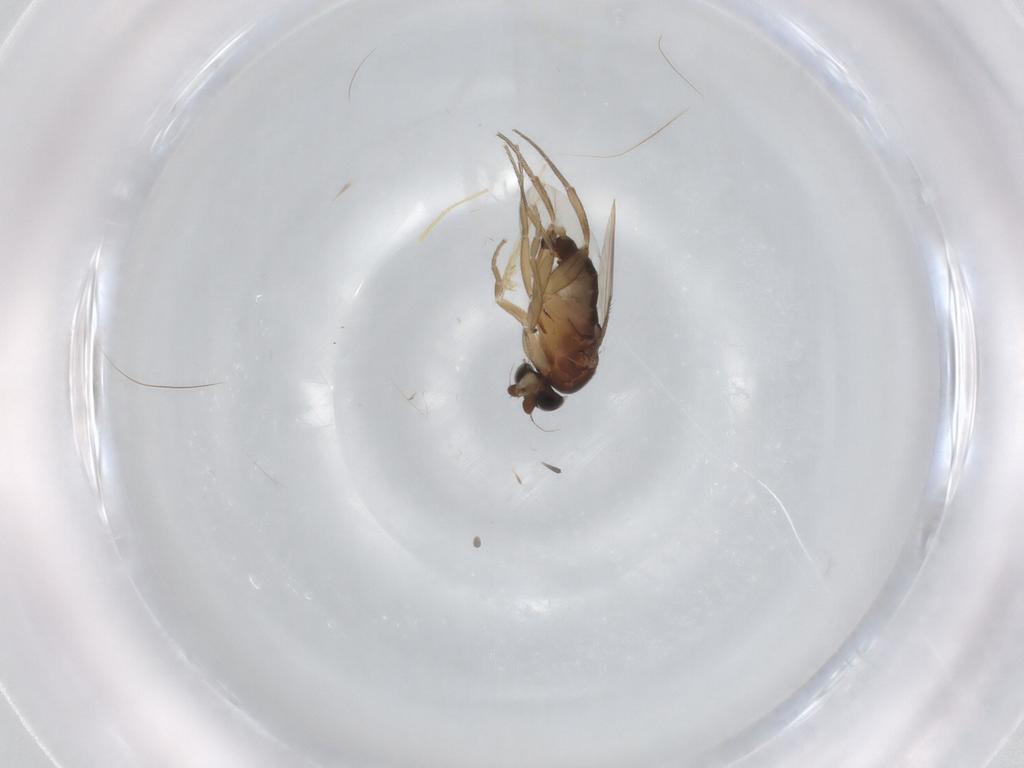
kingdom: Animalia
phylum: Arthropoda
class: Insecta
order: Diptera
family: Phoridae
